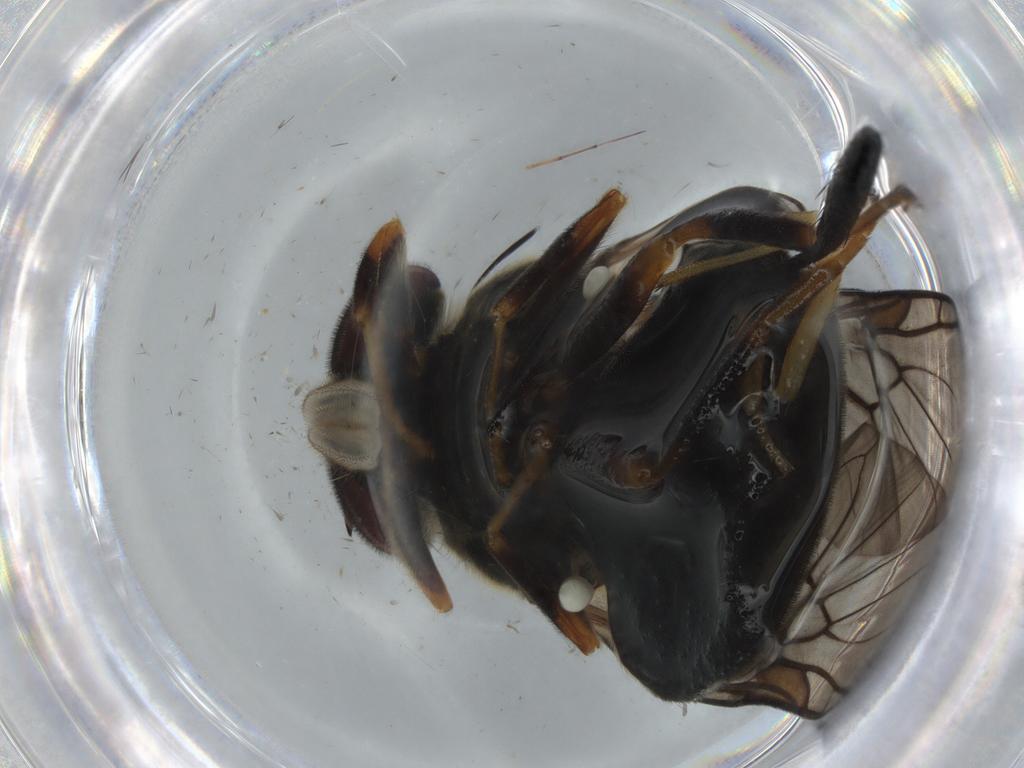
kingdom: Animalia
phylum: Arthropoda
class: Insecta
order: Diptera
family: Stratiomyidae
